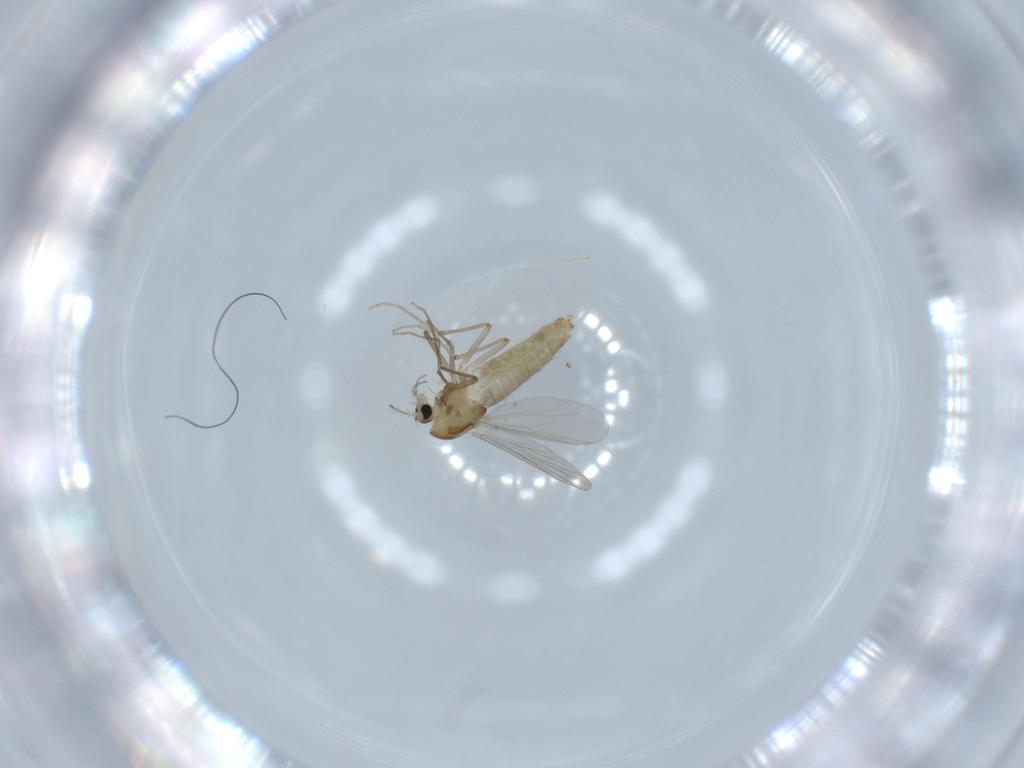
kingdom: Animalia
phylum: Arthropoda
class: Insecta
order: Diptera
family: Chironomidae
